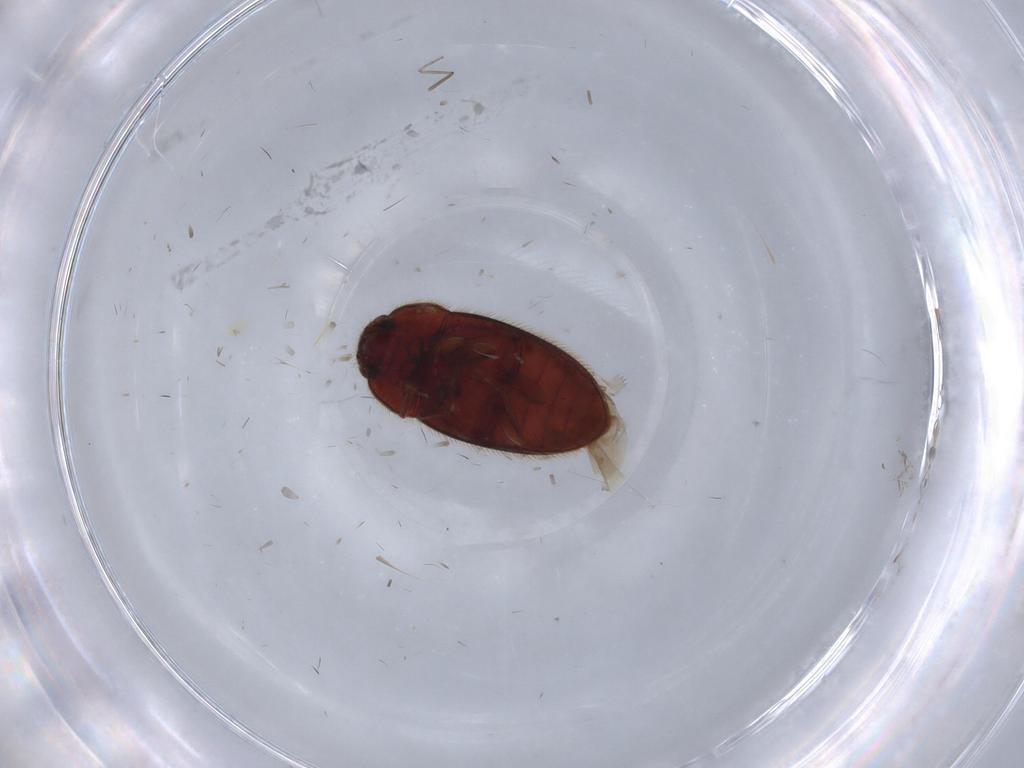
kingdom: Animalia
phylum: Arthropoda
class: Insecta
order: Coleoptera
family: Biphyllidae
